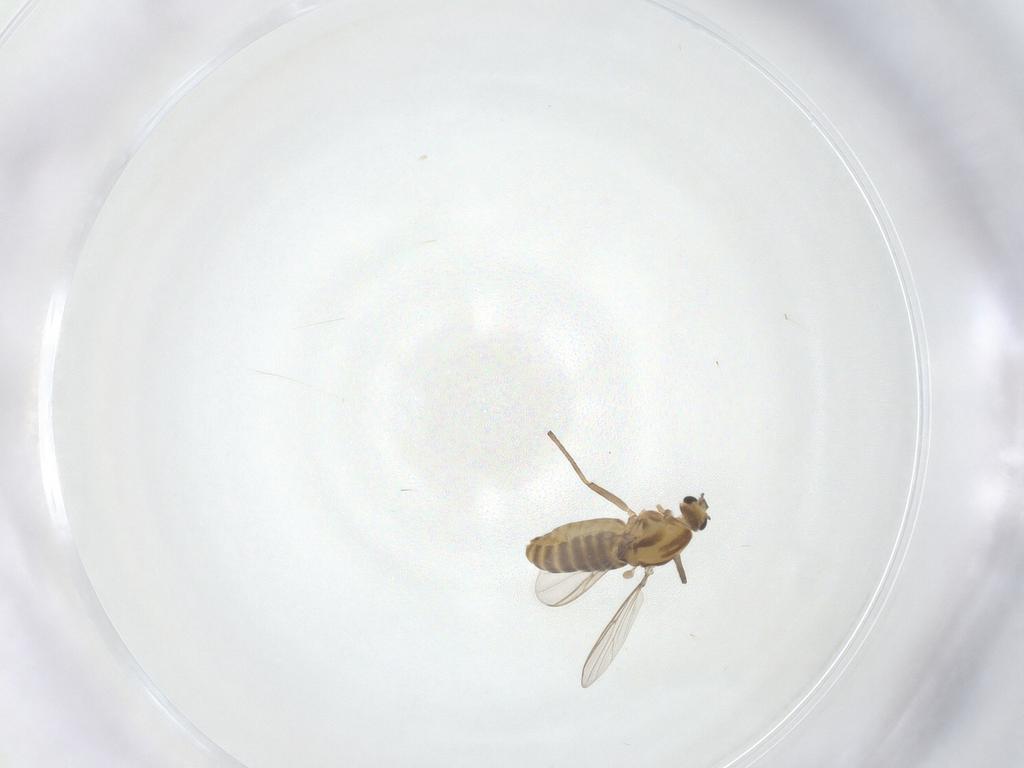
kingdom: Animalia
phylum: Arthropoda
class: Insecta
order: Diptera
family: Chironomidae
